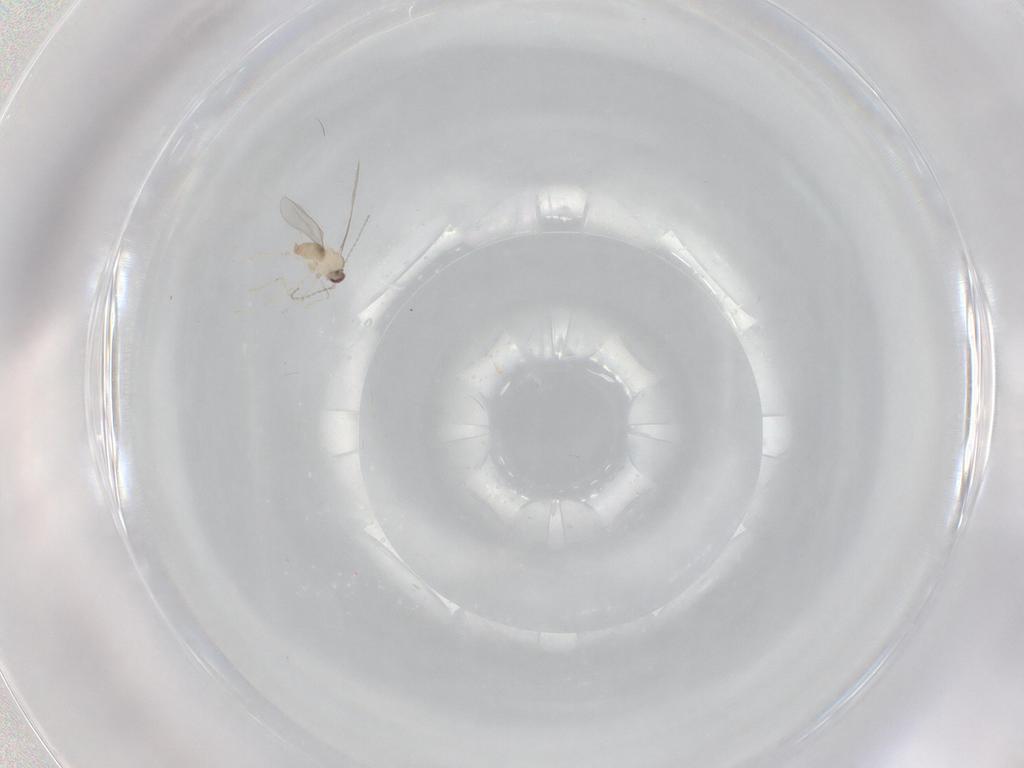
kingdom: Animalia
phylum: Arthropoda
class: Insecta
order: Diptera
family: Cecidomyiidae
